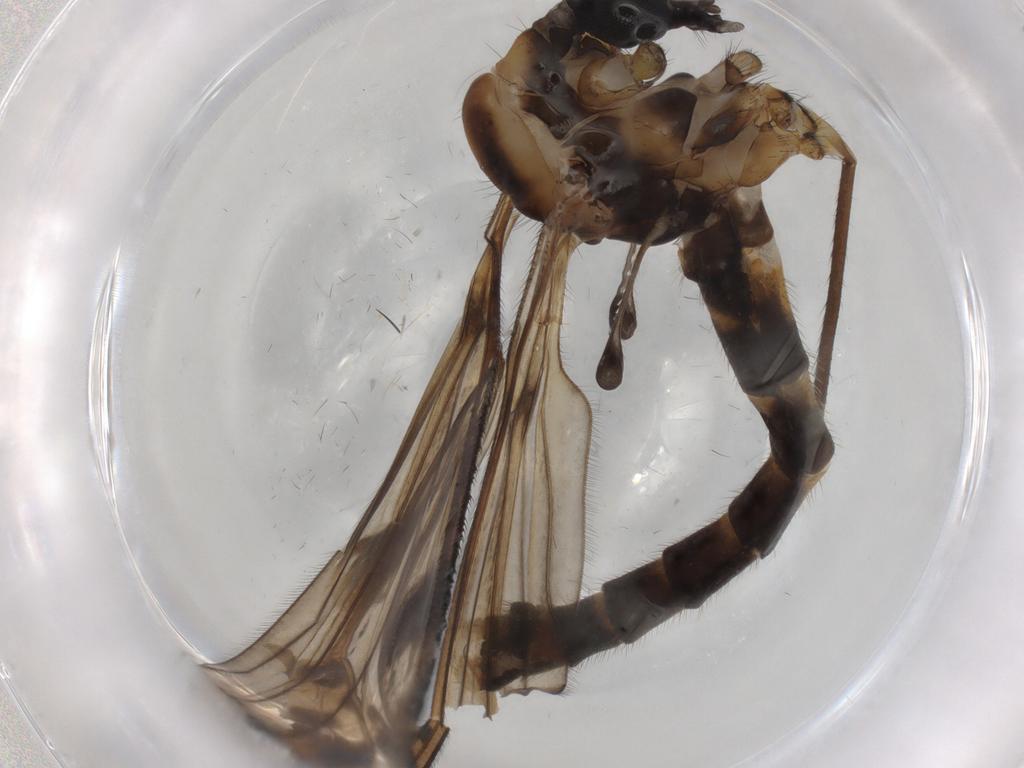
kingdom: Animalia
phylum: Arthropoda
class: Insecta
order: Diptera
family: Limoniidae
